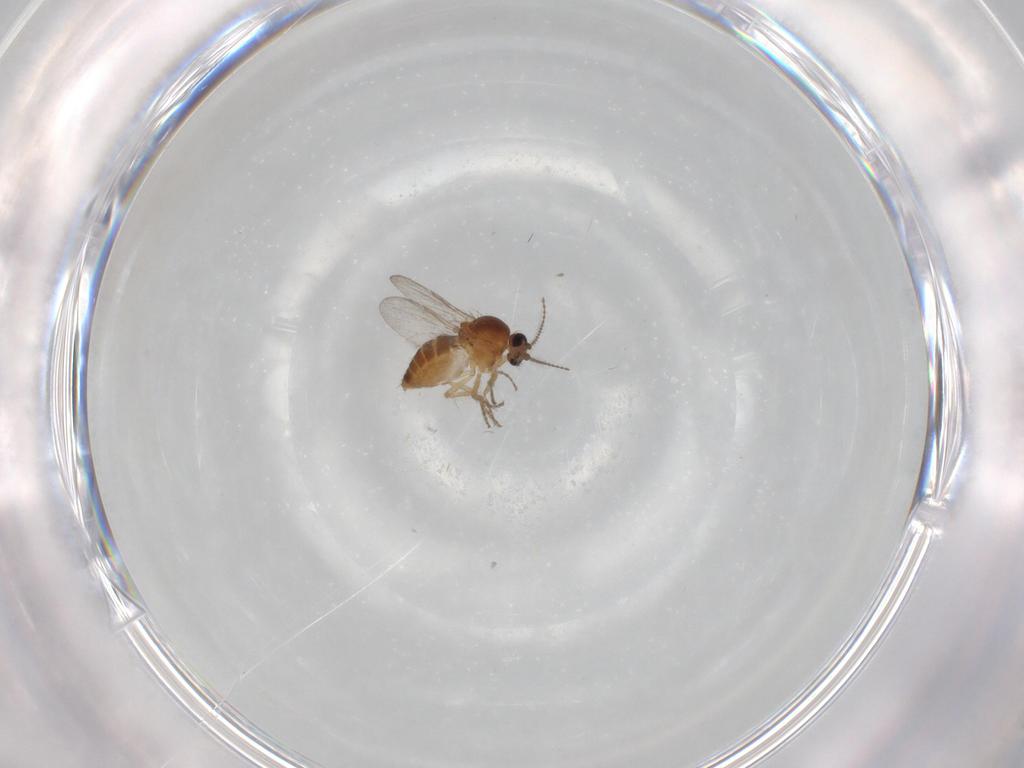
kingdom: Animalia
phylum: Arthropoda
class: Insecta
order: Diptera
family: Ceratopogonidae
